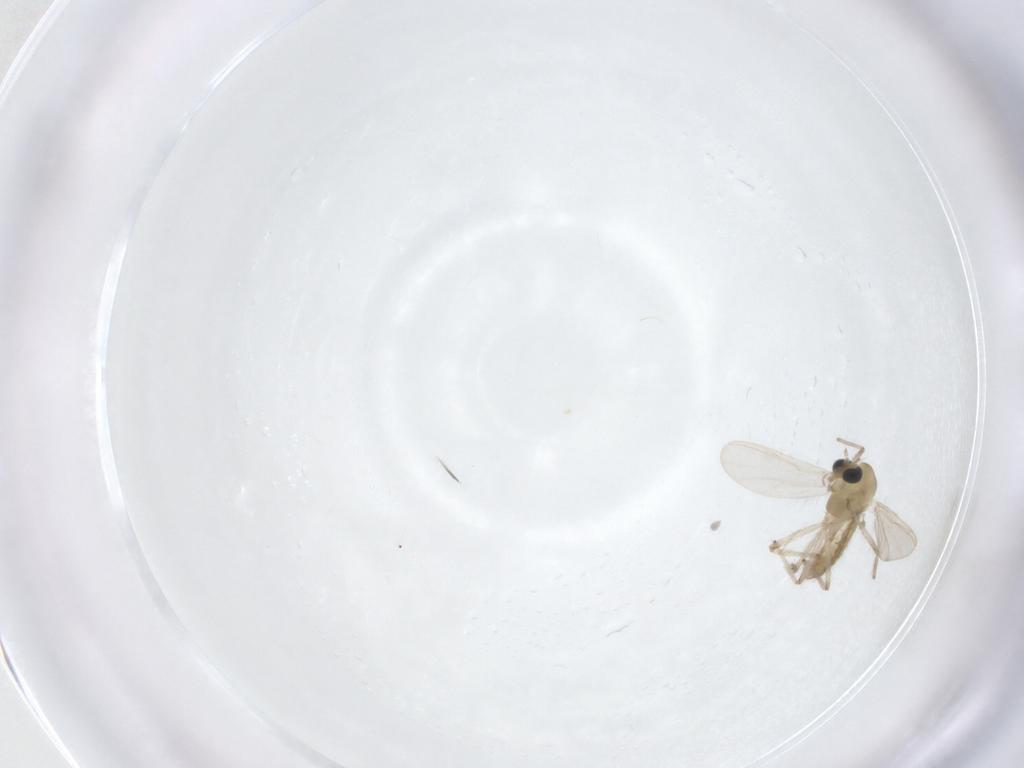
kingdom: Animalia
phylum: Arthropoda
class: Insecta
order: Diptera
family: Chironomidae
